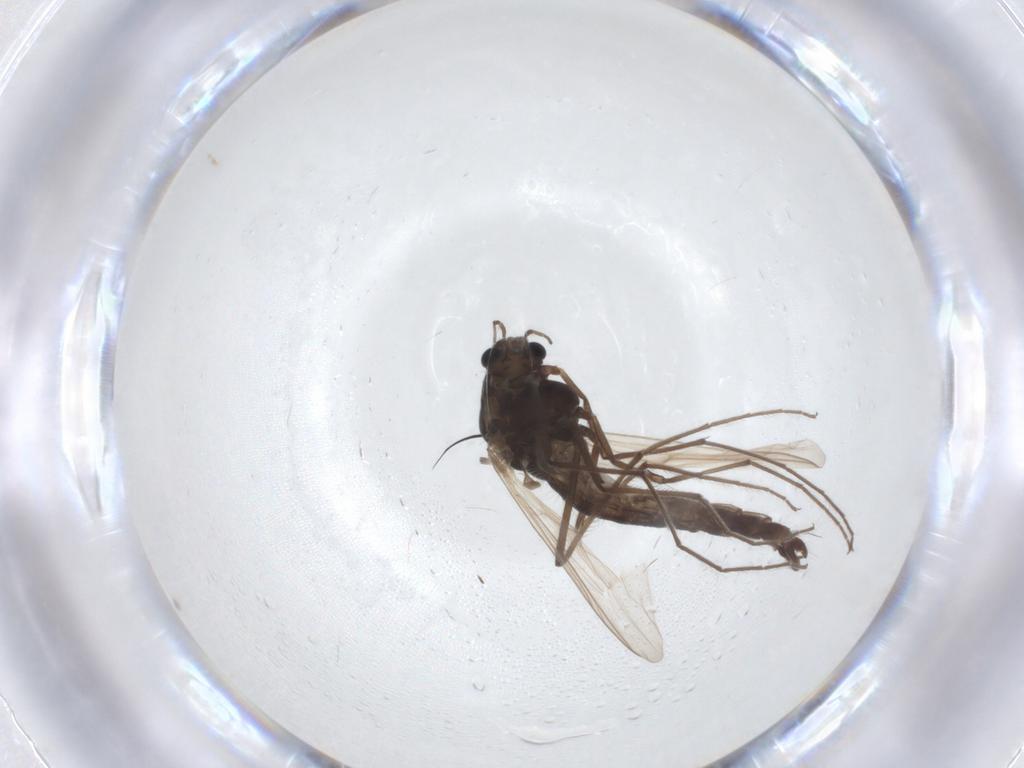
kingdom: Animalia
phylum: Arthropoda
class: Insecta
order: Diptera
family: Chironomidae
